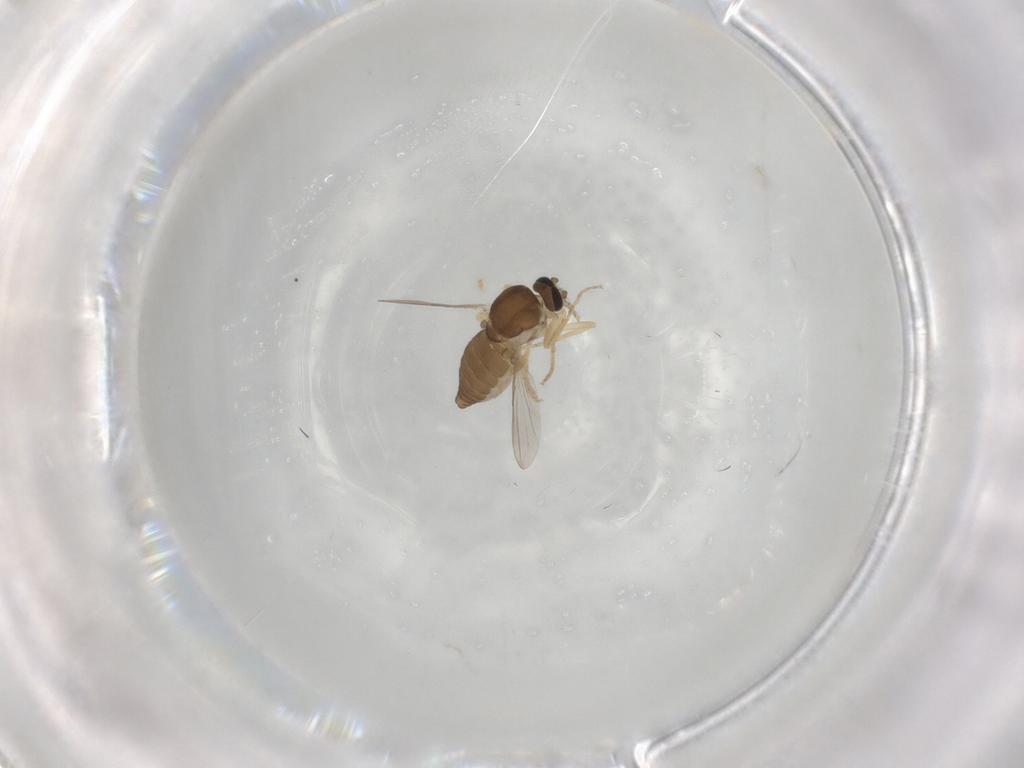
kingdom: Animalia
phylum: Arthropoda
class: Insecta
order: Diptera
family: Ceratopogonidae
